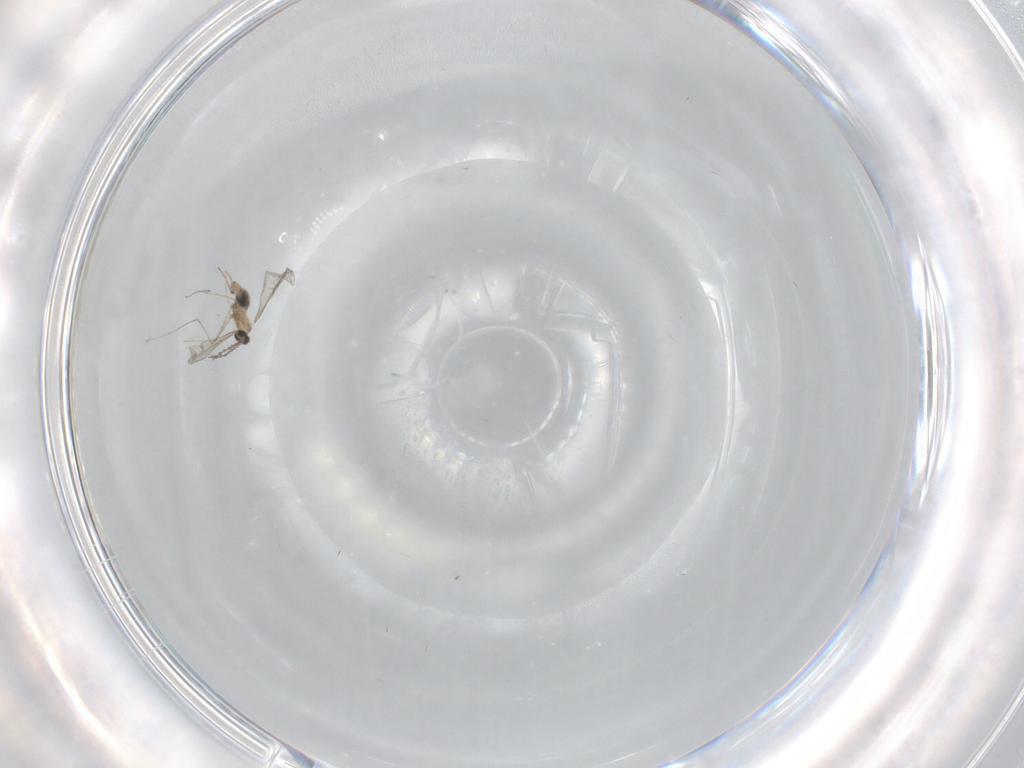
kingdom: Animalia
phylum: Arthropoda
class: Insecta
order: Diptera
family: Cecidomyiidae
